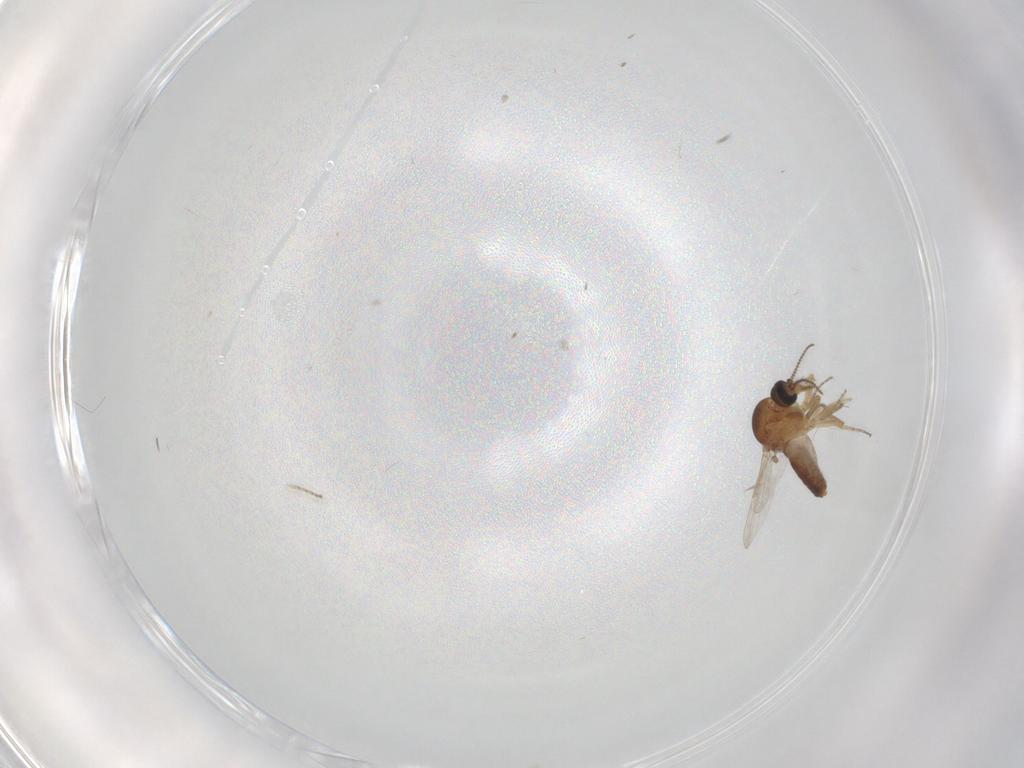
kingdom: Animalia
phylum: Arthropoda
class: Insecta
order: Diptera
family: Ceratopogonidae
